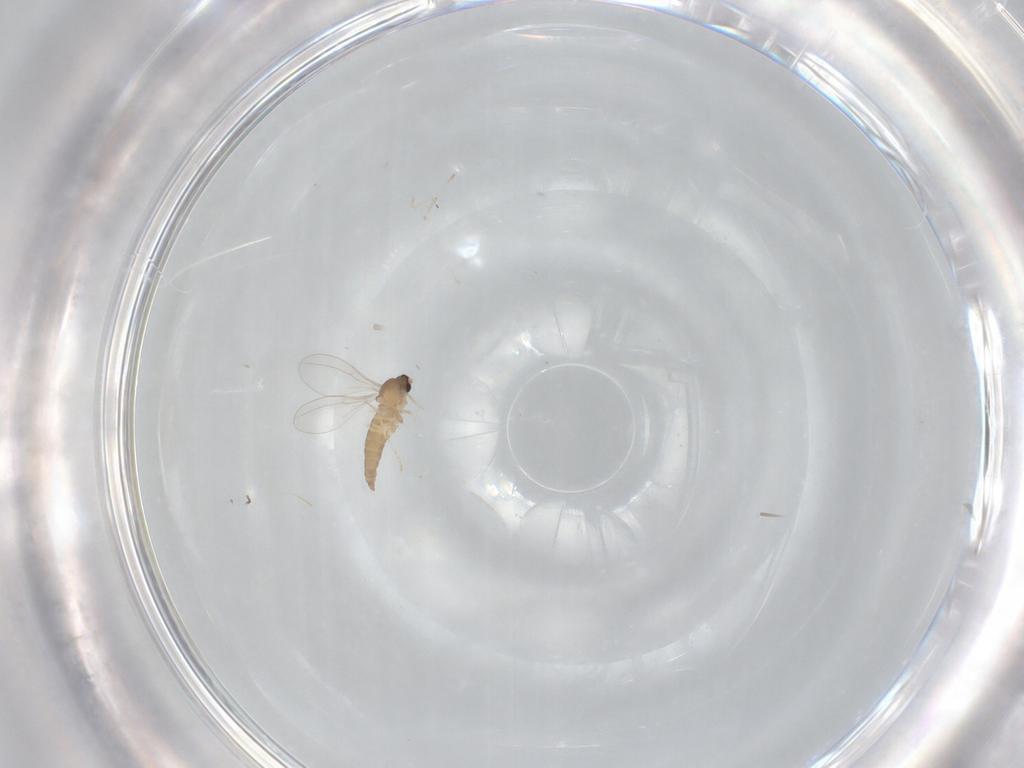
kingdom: Animalia
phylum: Arthropoda
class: Insecta
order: Diptera
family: Cecidomyiidae
